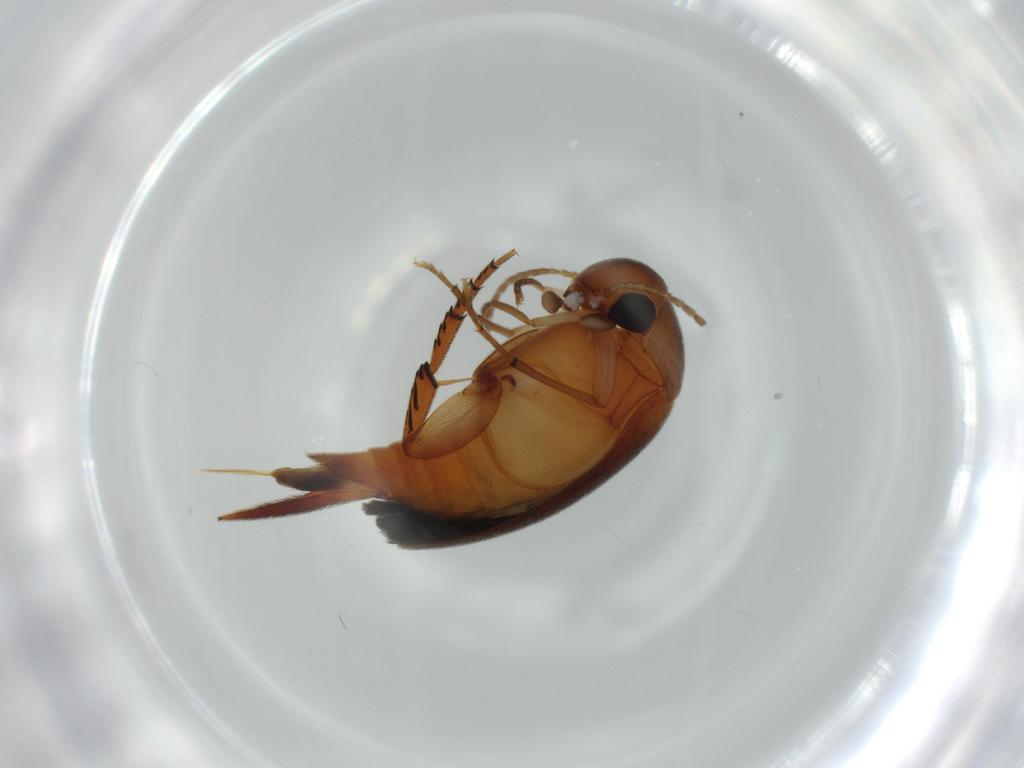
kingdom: Animalia
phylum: Arthropoda
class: Insecta
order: Coleoptera
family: Mordellidae
